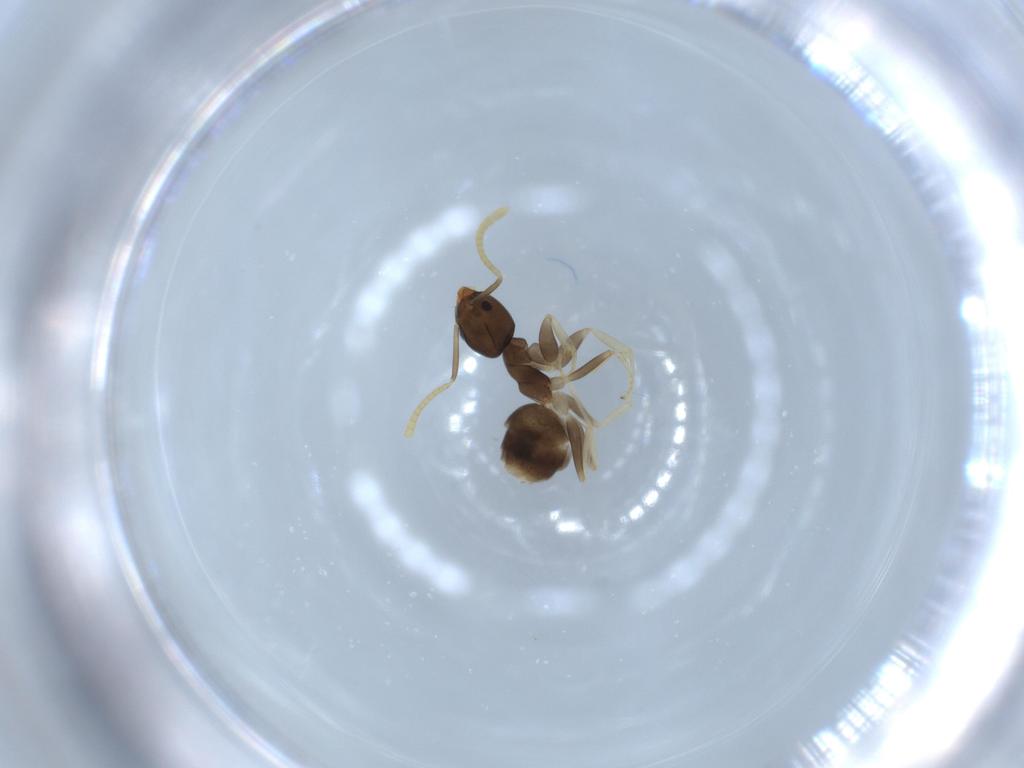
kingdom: Animalia
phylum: Arthropoda
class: Insecta
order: Hymenoptera
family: Formicidae
